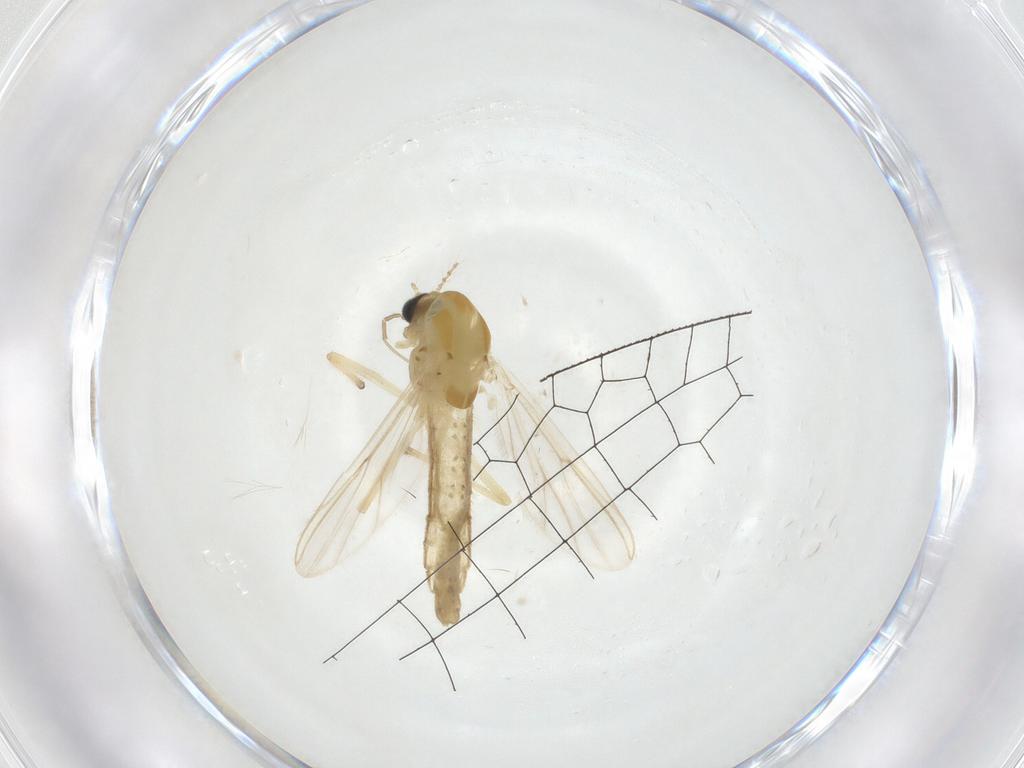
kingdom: Animalia
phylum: Arthropoda
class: Insecta
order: Diptera
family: Chironomidae
